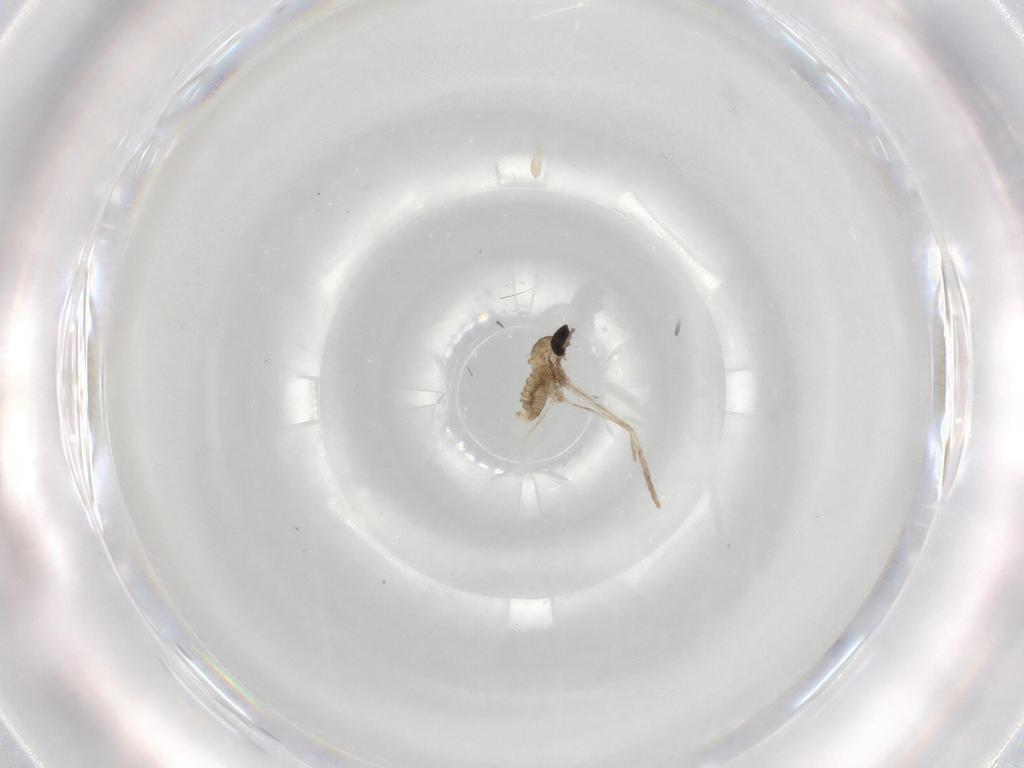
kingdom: Animalia
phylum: Arthropoda
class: Insecta
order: Diptera
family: Cecidomyiidae
